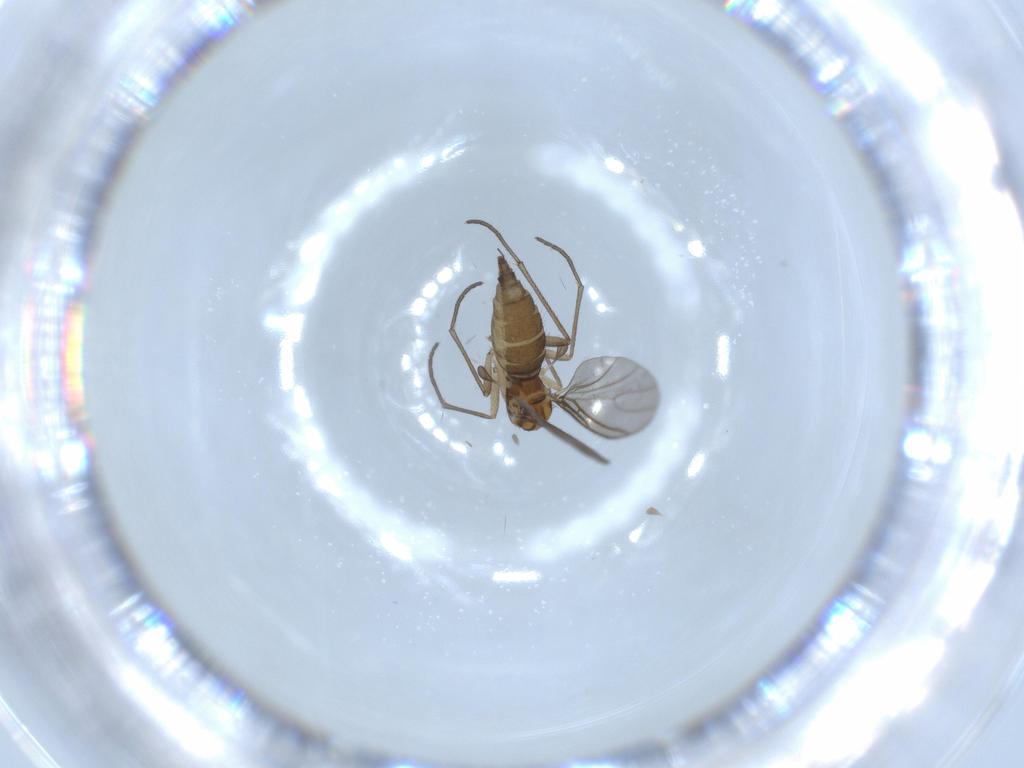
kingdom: Animalia
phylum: Arthropoda
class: Insecta
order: Diptera
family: Sciaridae
